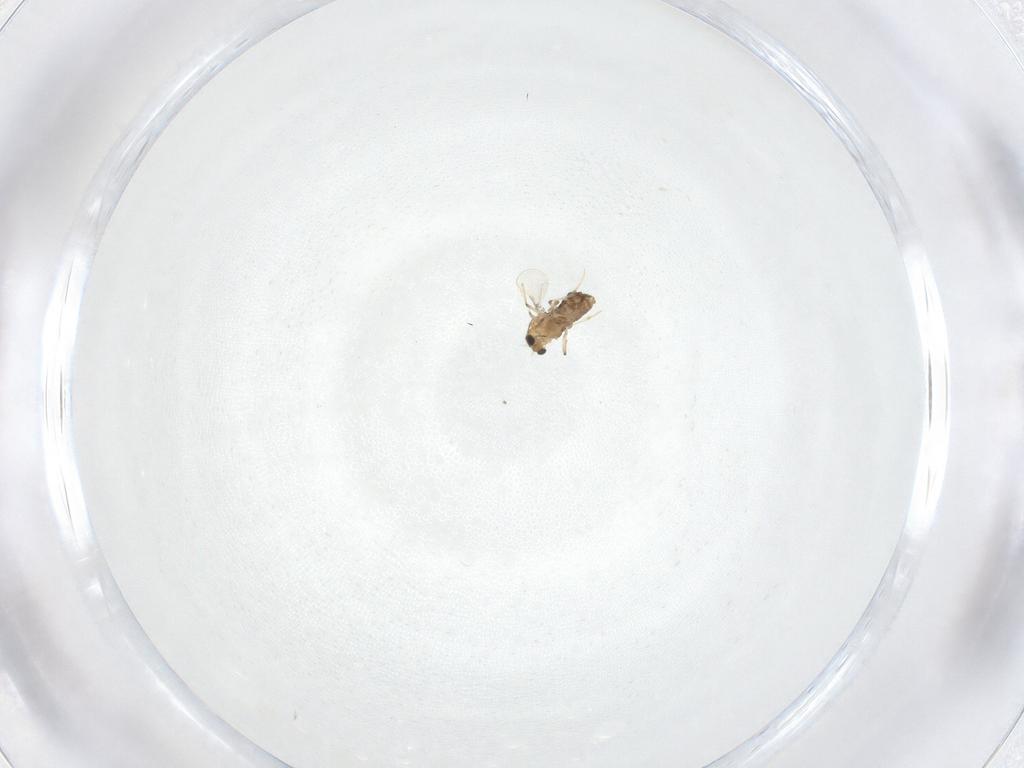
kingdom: Animalia
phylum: Arthropoda
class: Insecta
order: Diptera
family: Chironomidae
